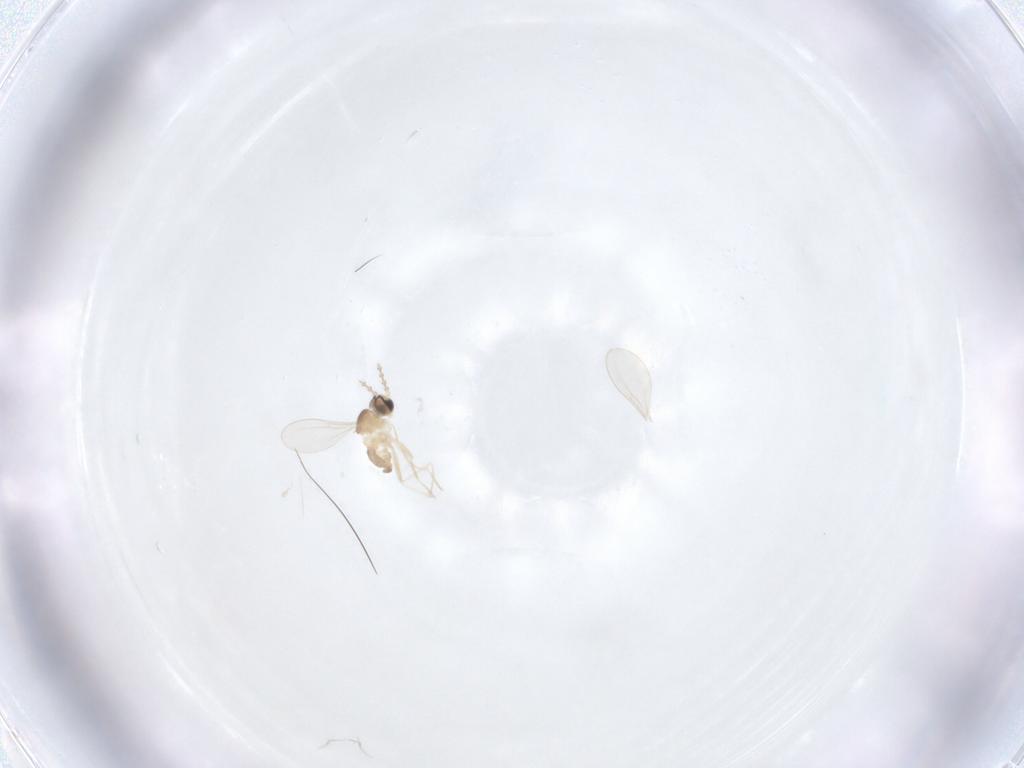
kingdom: Animalia
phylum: Arthropoda
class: Insecta
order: Diptera
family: Cecidomyiidae
